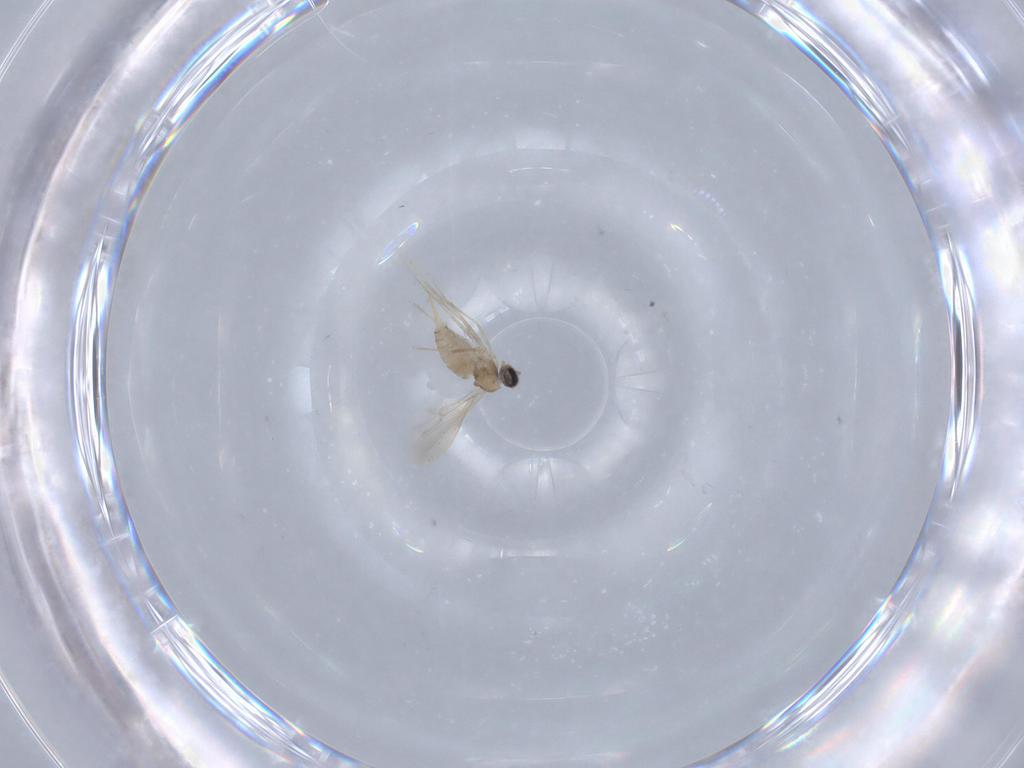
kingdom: Animalia
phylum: Arthropoda
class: Insecta
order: Diptera
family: Cecidomyiidae
